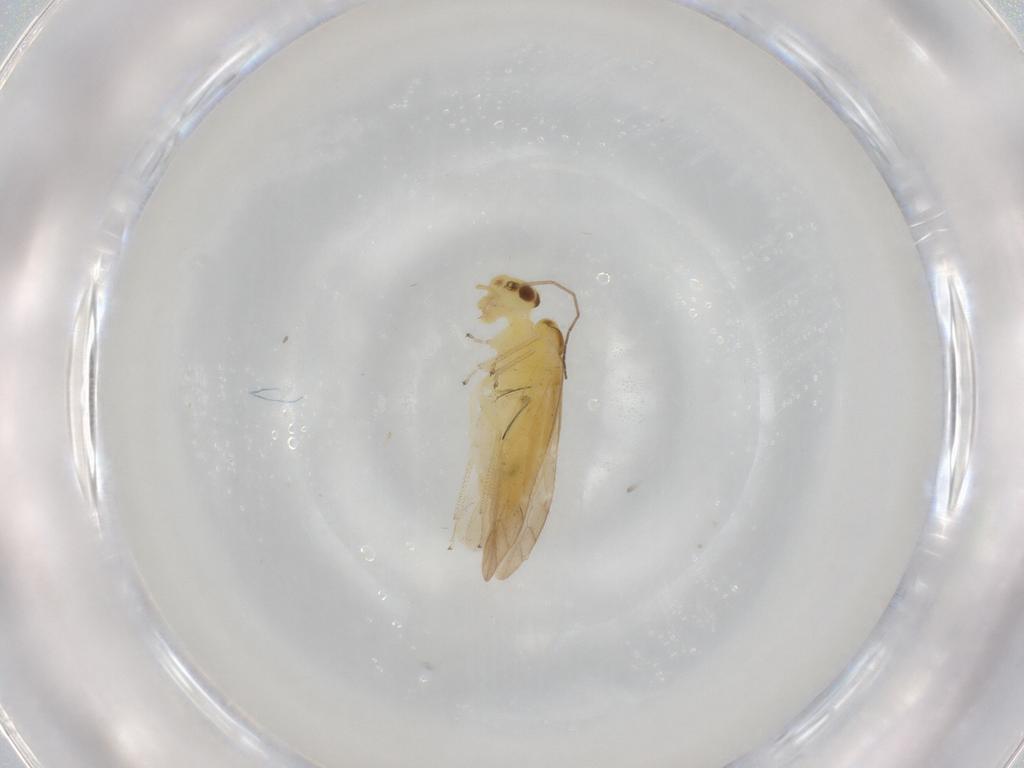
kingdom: Animalia
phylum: Arthropoda
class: Insecta
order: Psocodea
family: Caeciliusidae
